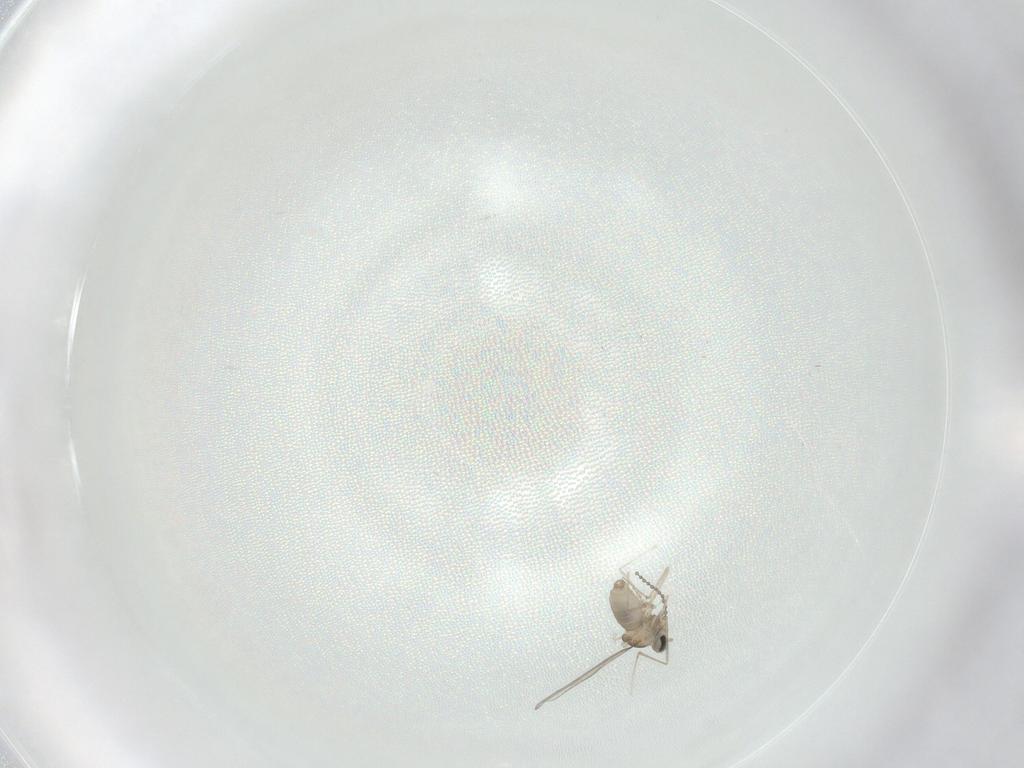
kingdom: Animalia
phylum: Arthropoda
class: Insecta
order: Diptera
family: Cecidomyiidae
